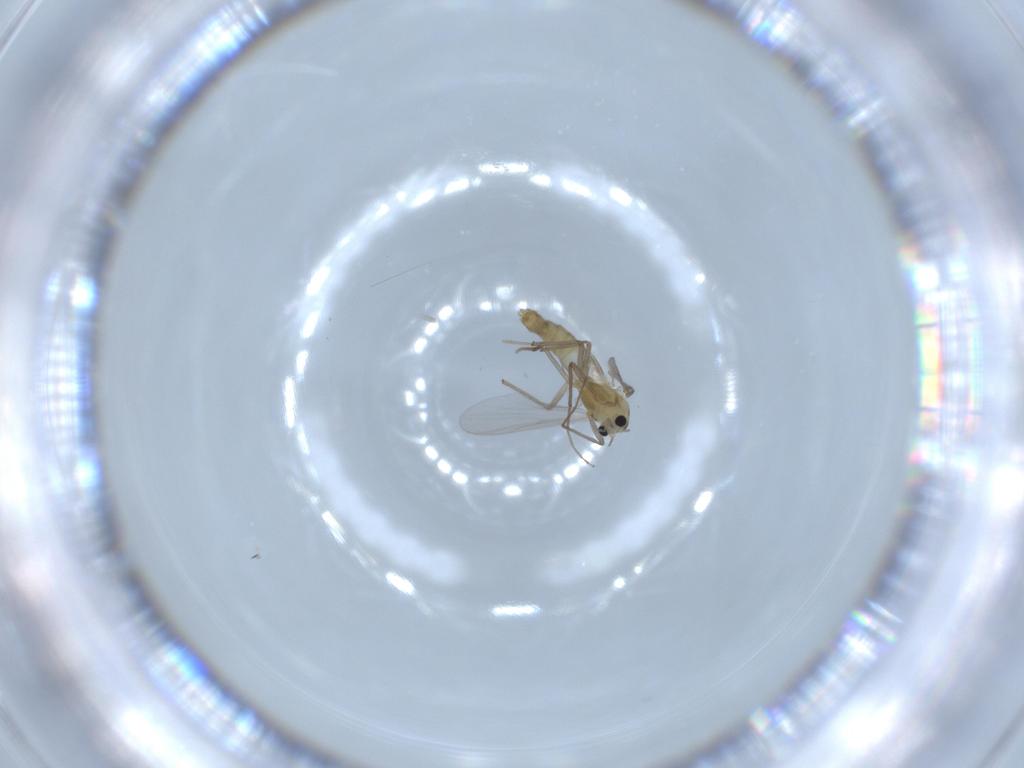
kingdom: Animalia
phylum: Arthropoda
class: Insecta
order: Diptera
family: Chironomidae
